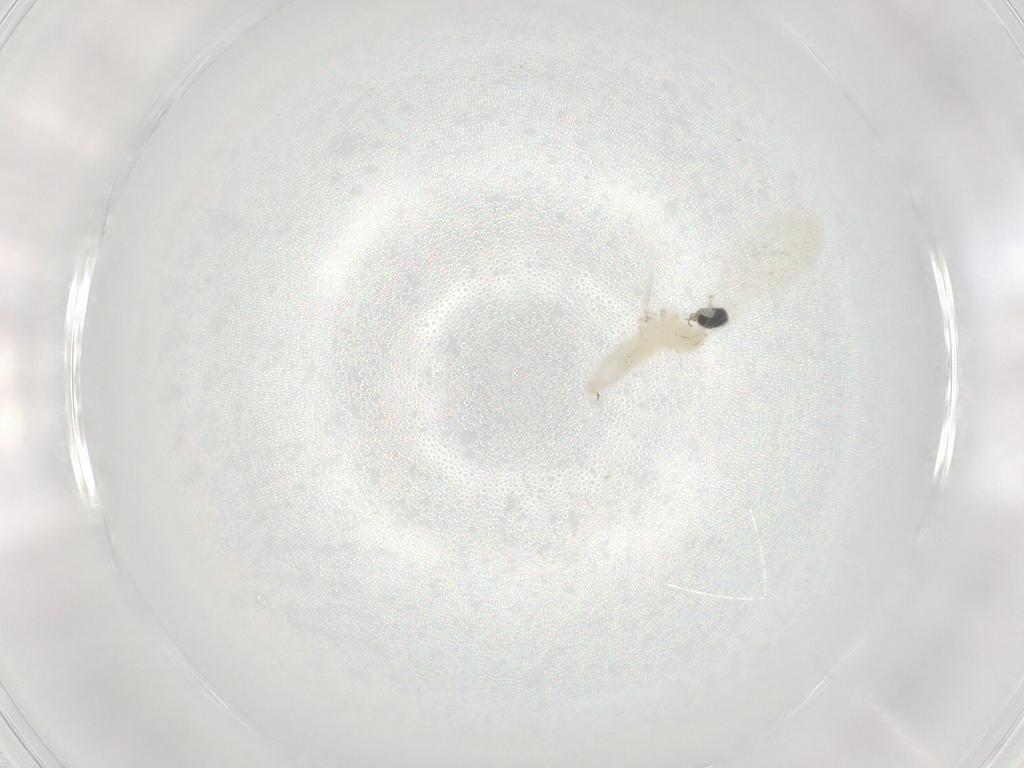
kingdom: Animalia
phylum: Arthropoda
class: Insecta
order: Diptera
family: Cecidomyiidae
